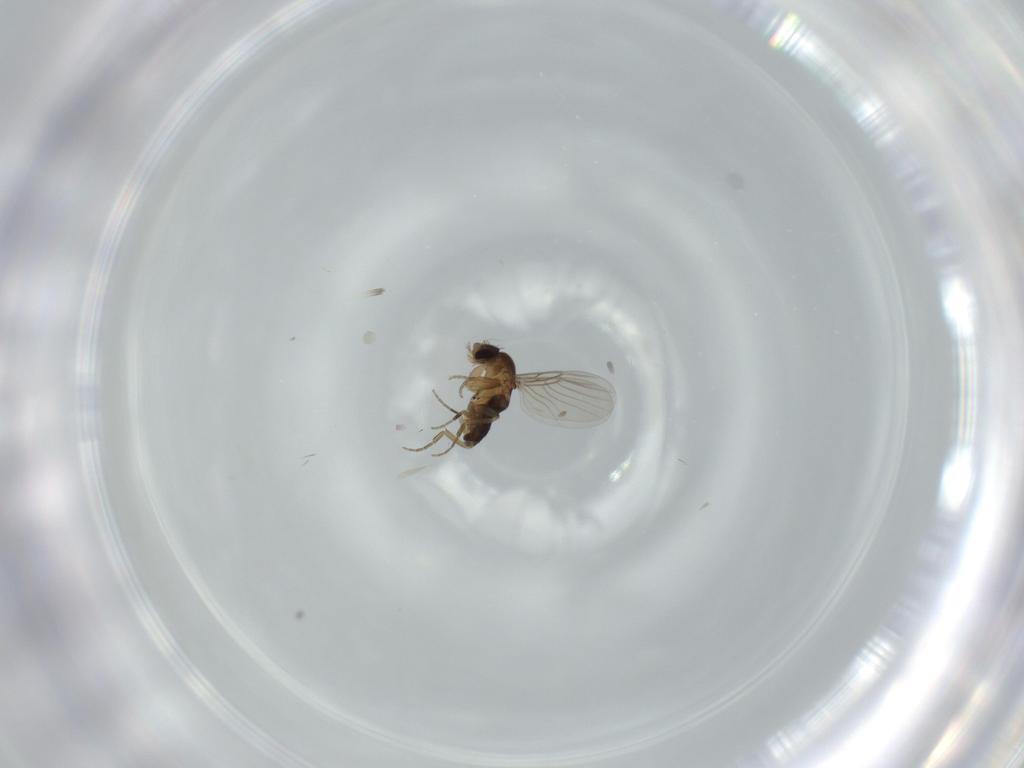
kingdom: Animalia
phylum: Arthropoda
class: Insecta
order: Diptera
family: Phoridae
